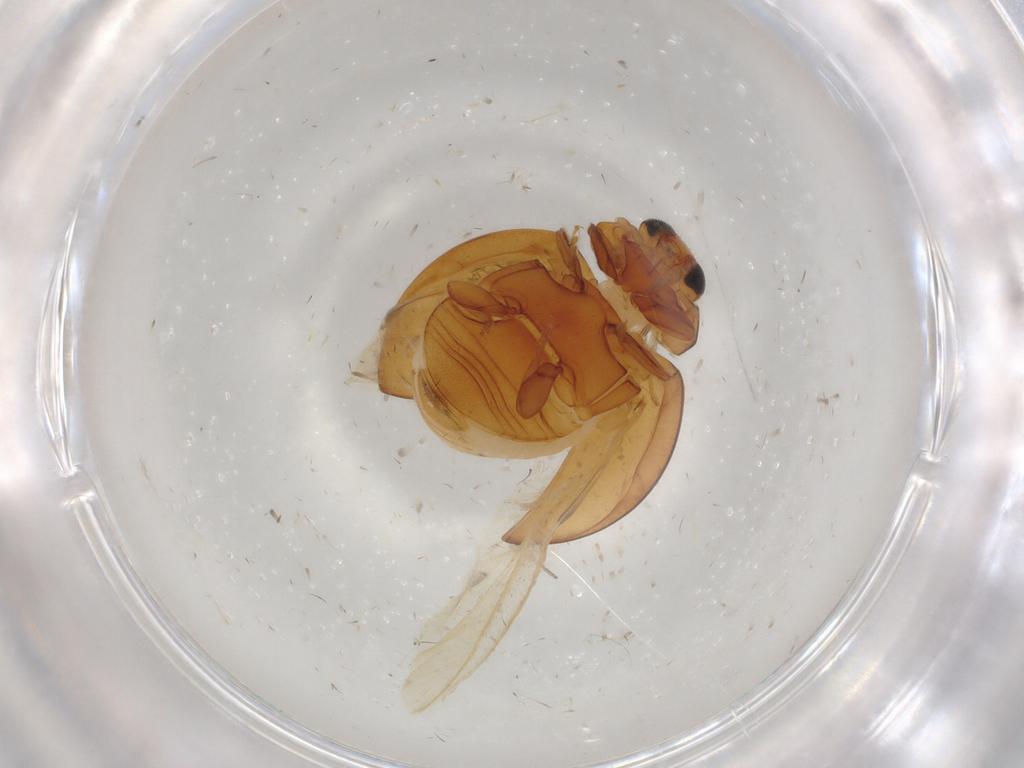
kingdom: Animalia
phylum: Arthropoda
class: Insecta
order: Coleoptera
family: Coccinellidae
